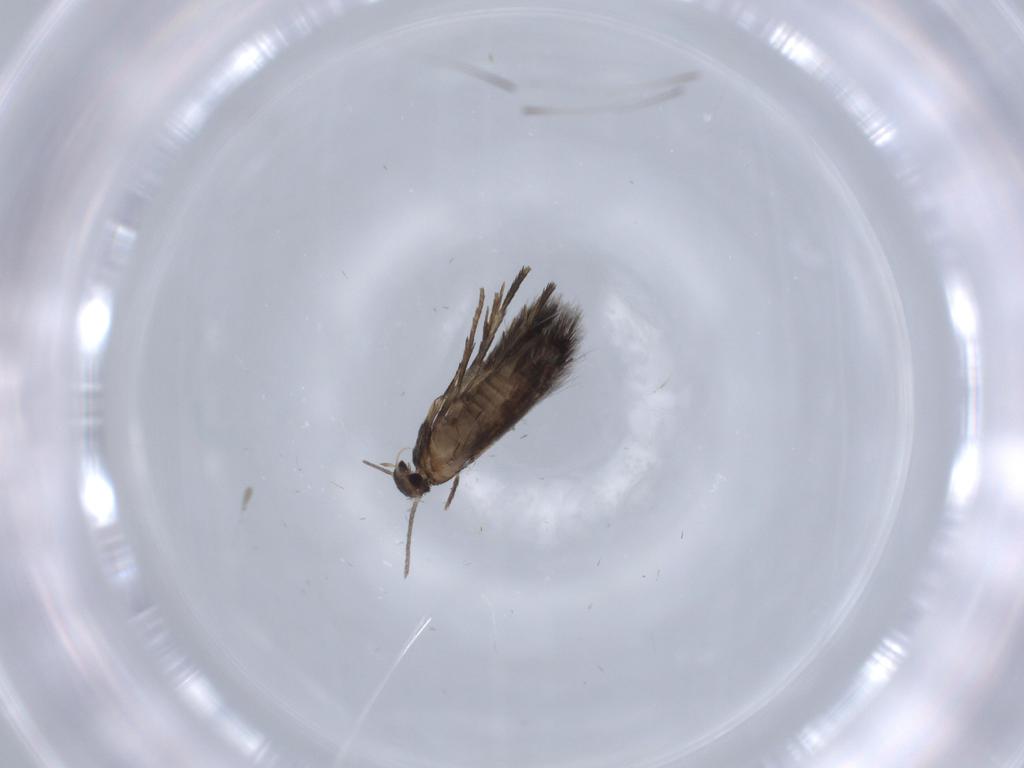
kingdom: Animalia
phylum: Arthropoda
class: Insecta
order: Lepidoptera
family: Heliozelidae
